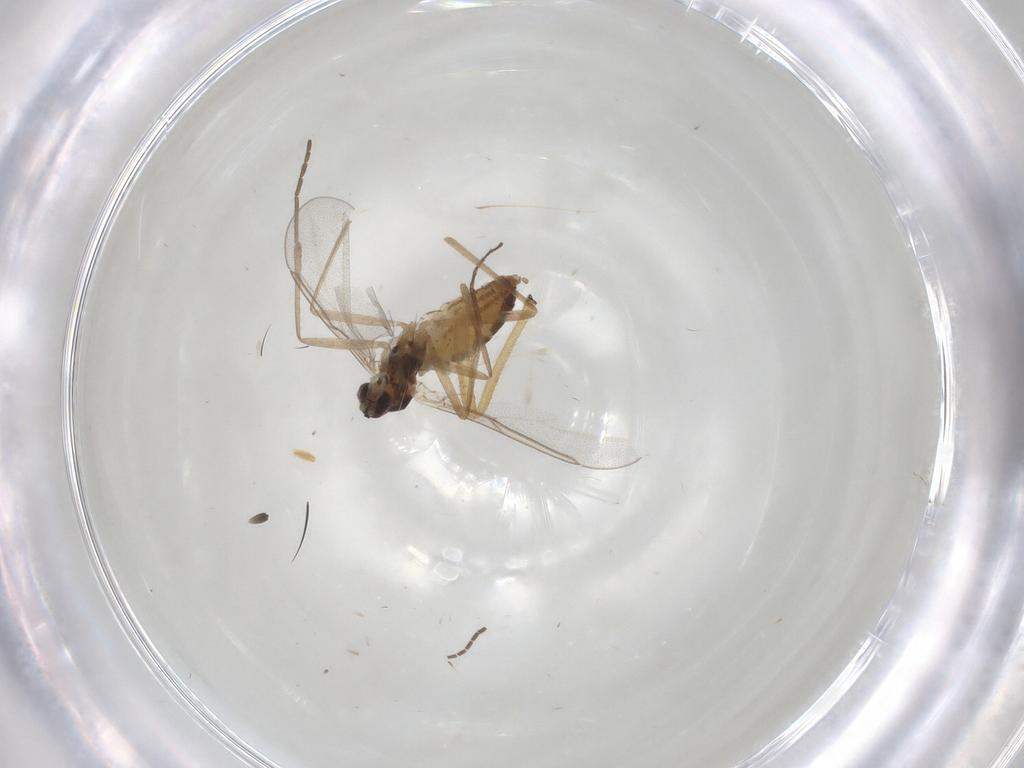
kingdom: Animalia
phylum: Arthropoda
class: Insecta
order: Diptera
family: Cecidomyiidae
